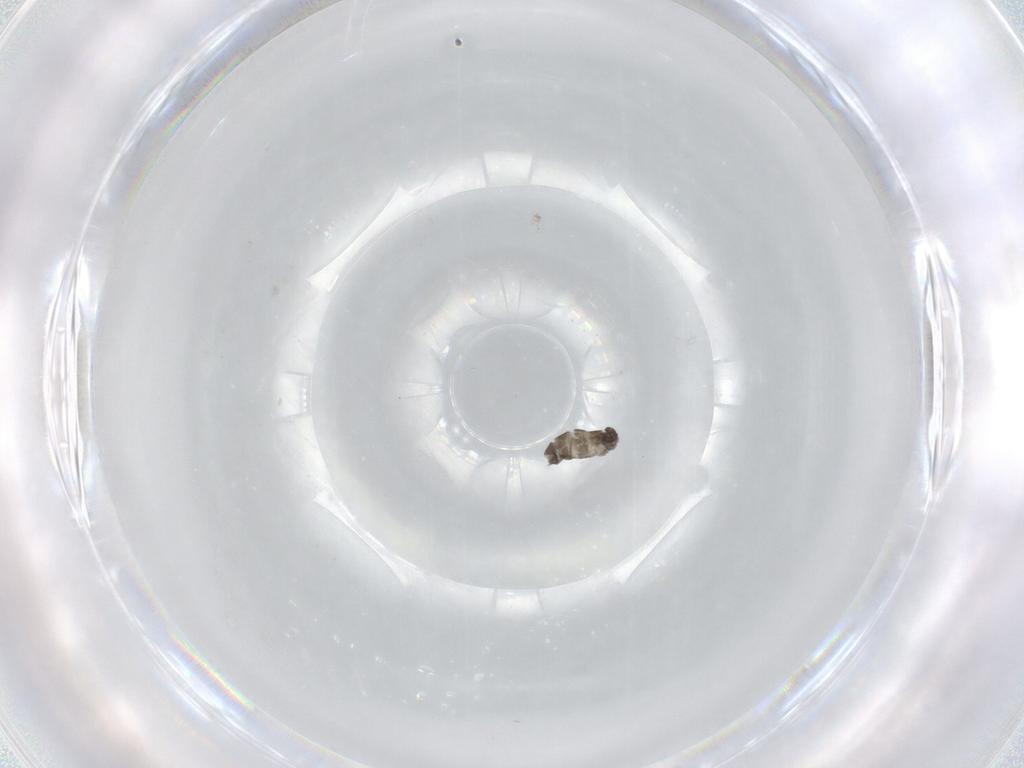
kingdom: Animalia
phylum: Arthropoda
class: Insecta
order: Diptera
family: Cecidomyiidae
